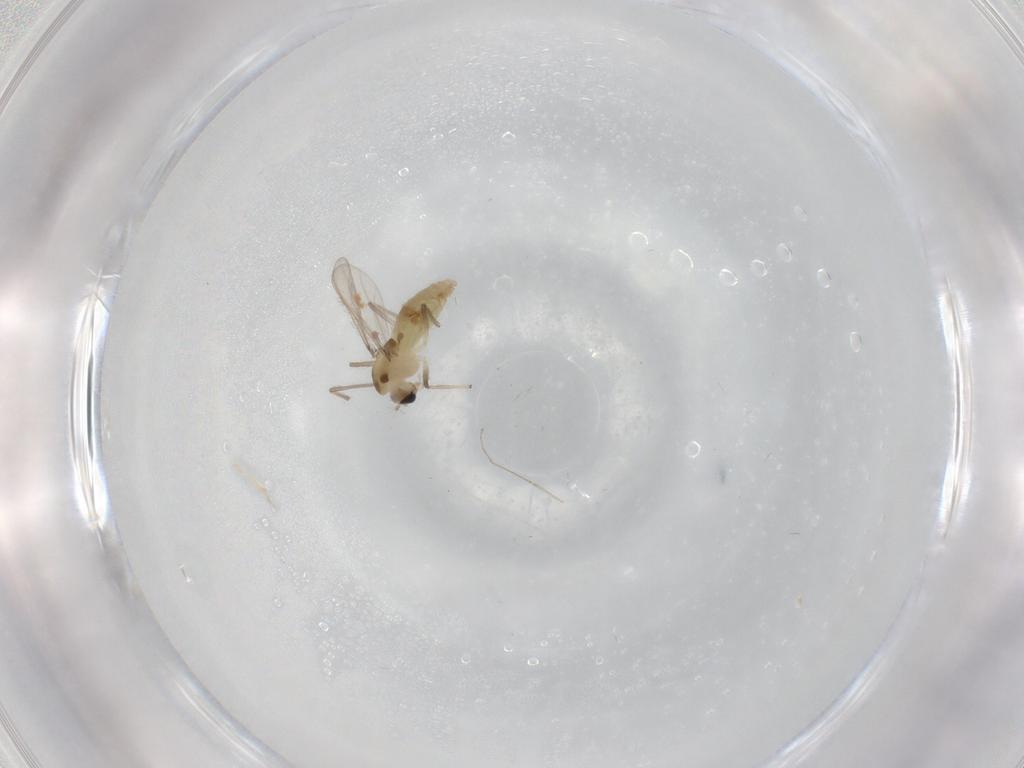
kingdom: Animalia
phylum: Arthropoda
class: Insecta
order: Diptera
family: Chironomidae
